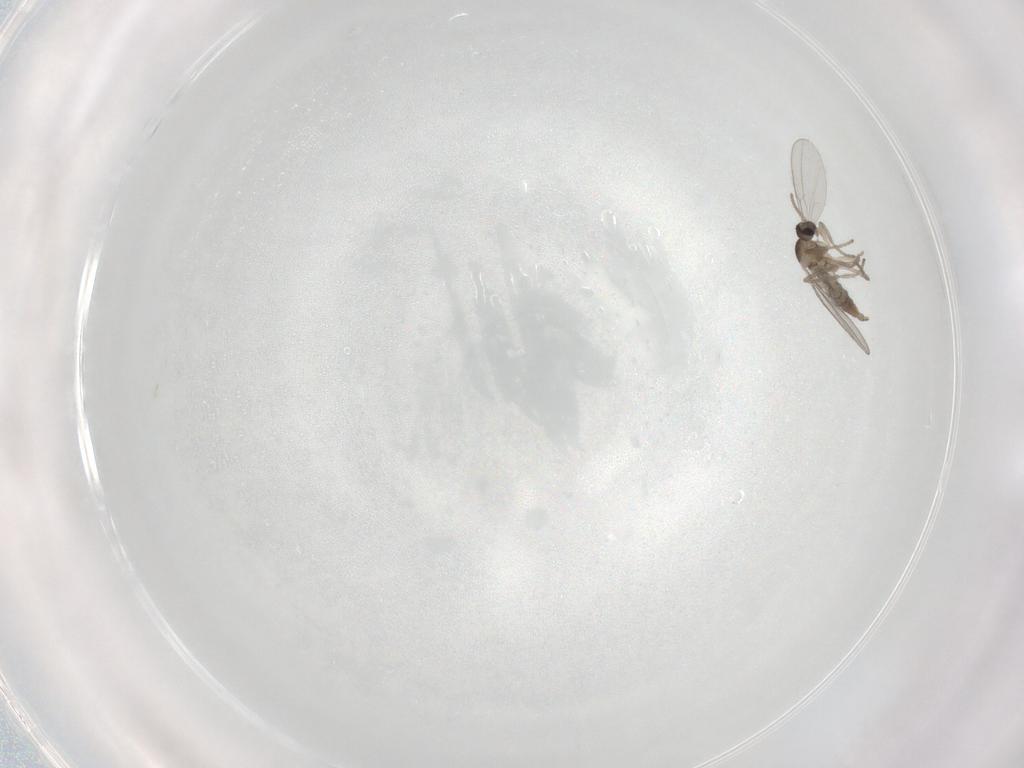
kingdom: Animalia
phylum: Arthropoda
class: Insecta
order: Diptera
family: Cecidomyiidae
